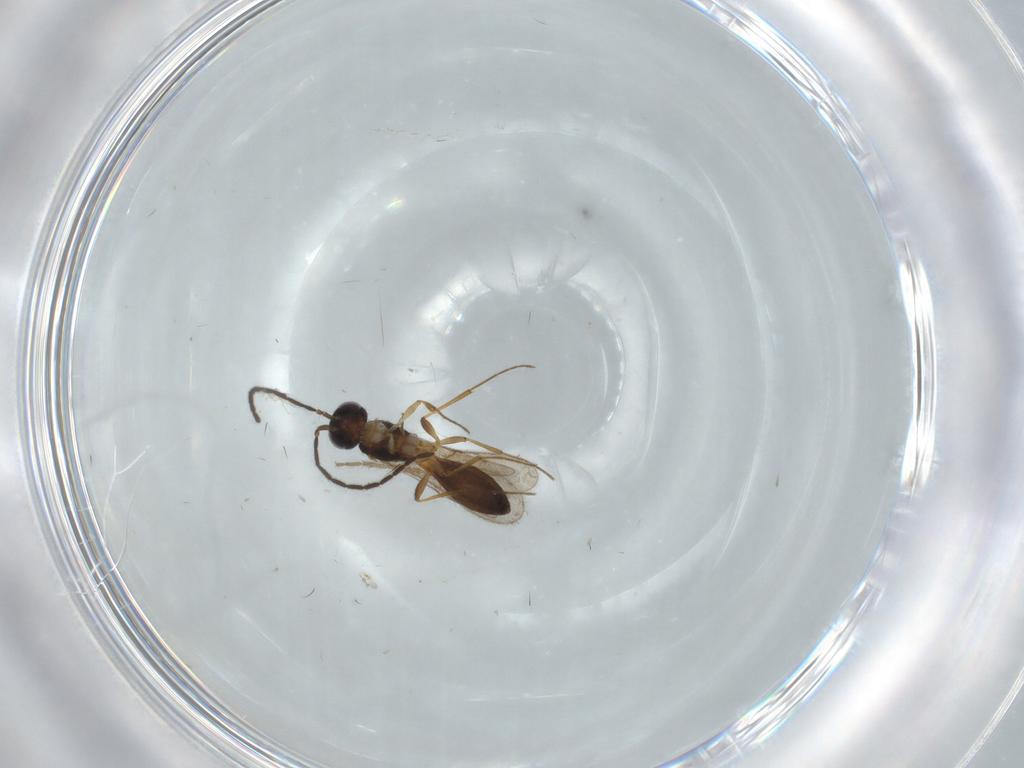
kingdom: Animalia
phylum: Arthropoda
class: Insecta
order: Hymenoptera
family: Scelionidae
